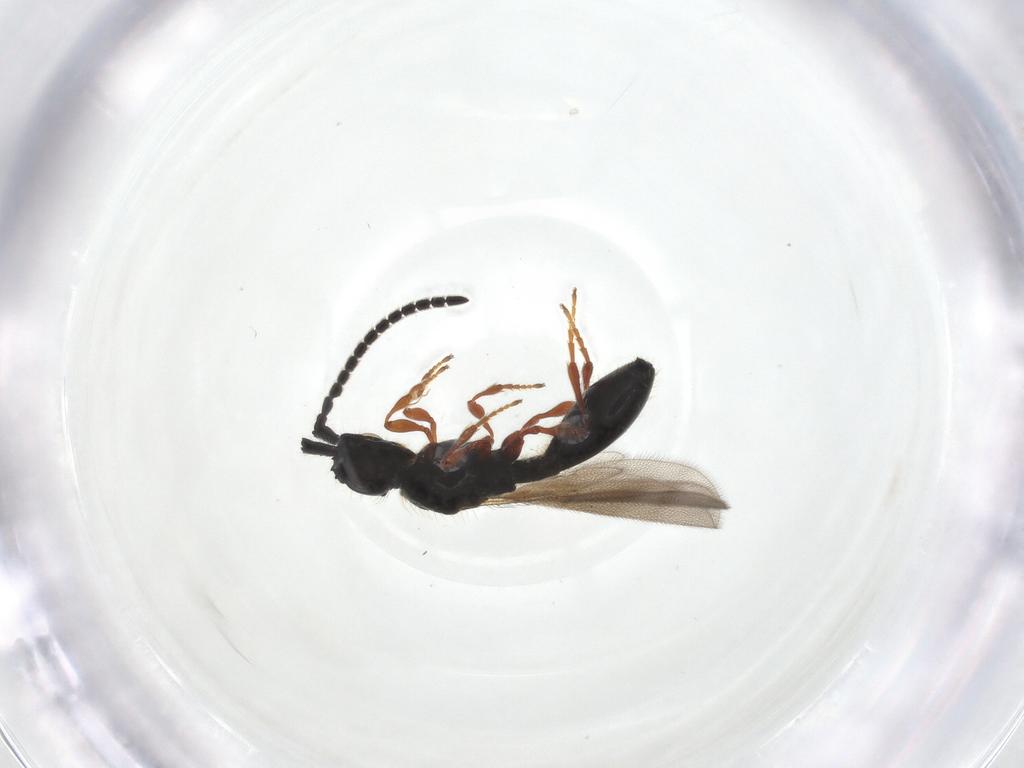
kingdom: Animalia
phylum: Arthropoda
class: Insecta
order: Hymenoptera
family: Diapriidae
